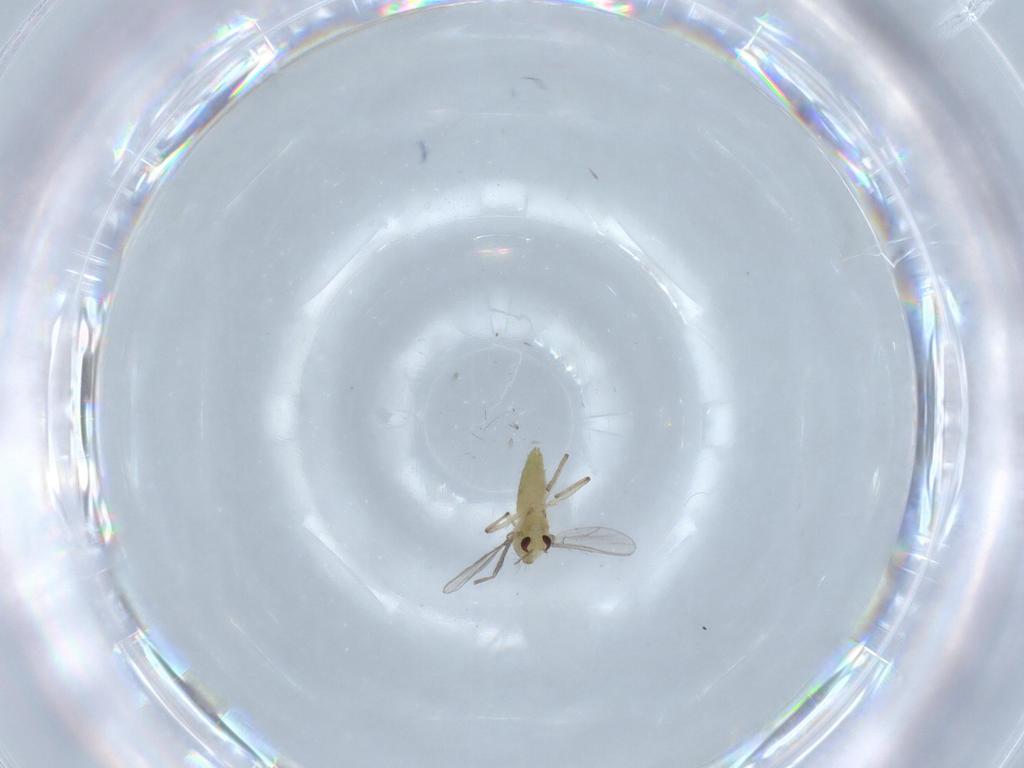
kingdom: Animalia
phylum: Arthropoda
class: Insecta
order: Diptera
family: Chironomidae
